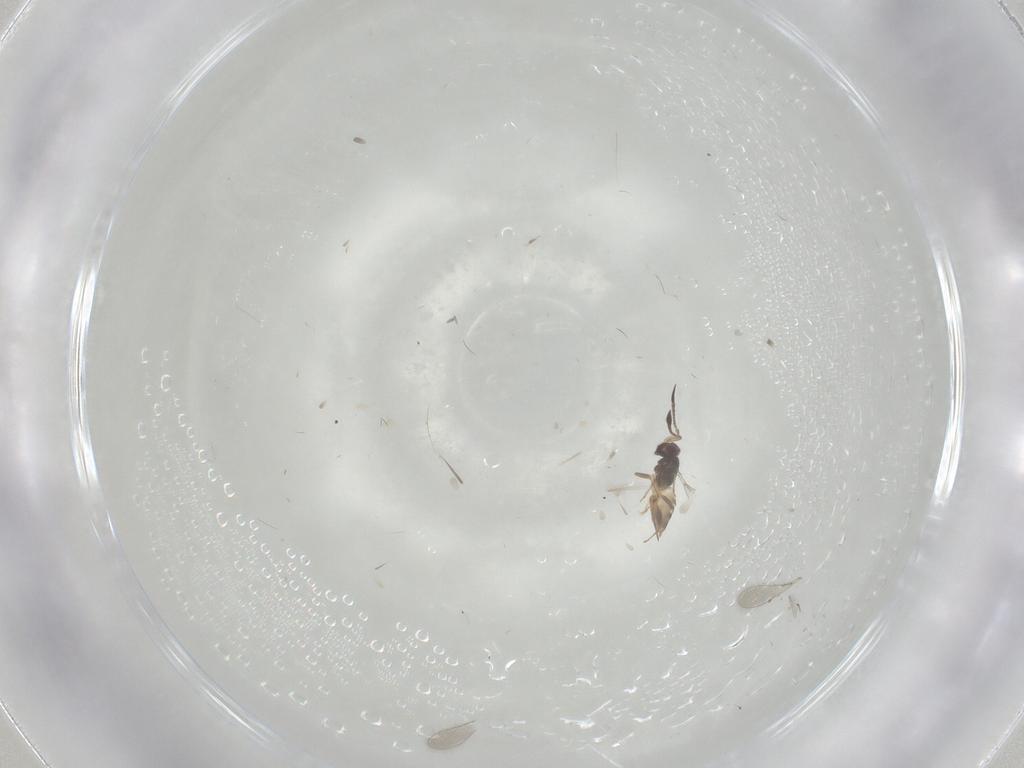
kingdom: Animalia
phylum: Arthropoda
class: Insecta
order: Hymenoptera
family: Mymaridae
